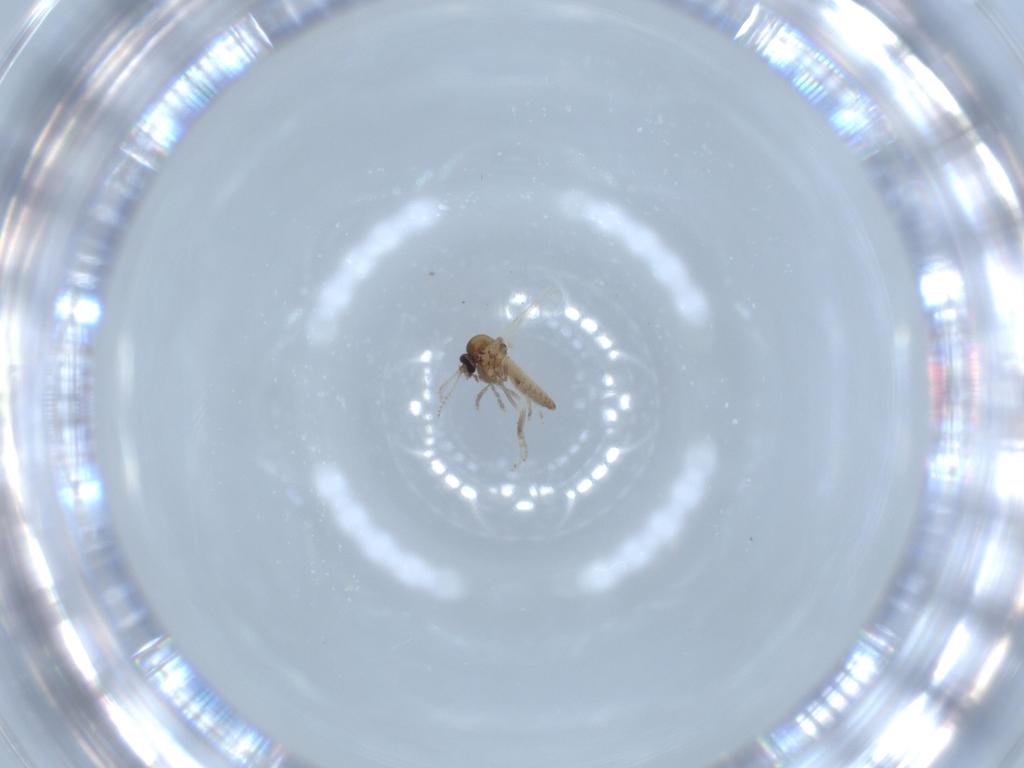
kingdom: Animalia
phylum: Arthropoda
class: Insecta
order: Diptera
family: Ceratopogonidae
